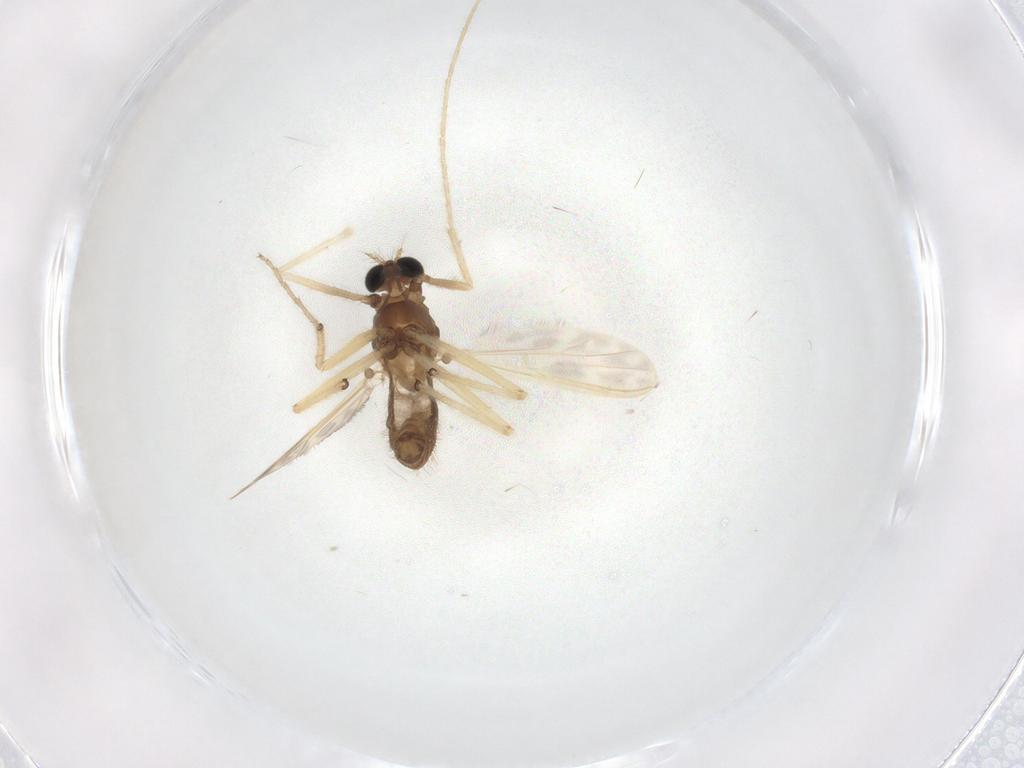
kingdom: Animalia
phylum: Arthropoda
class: Insecta
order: Diptera
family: Chironomidae
